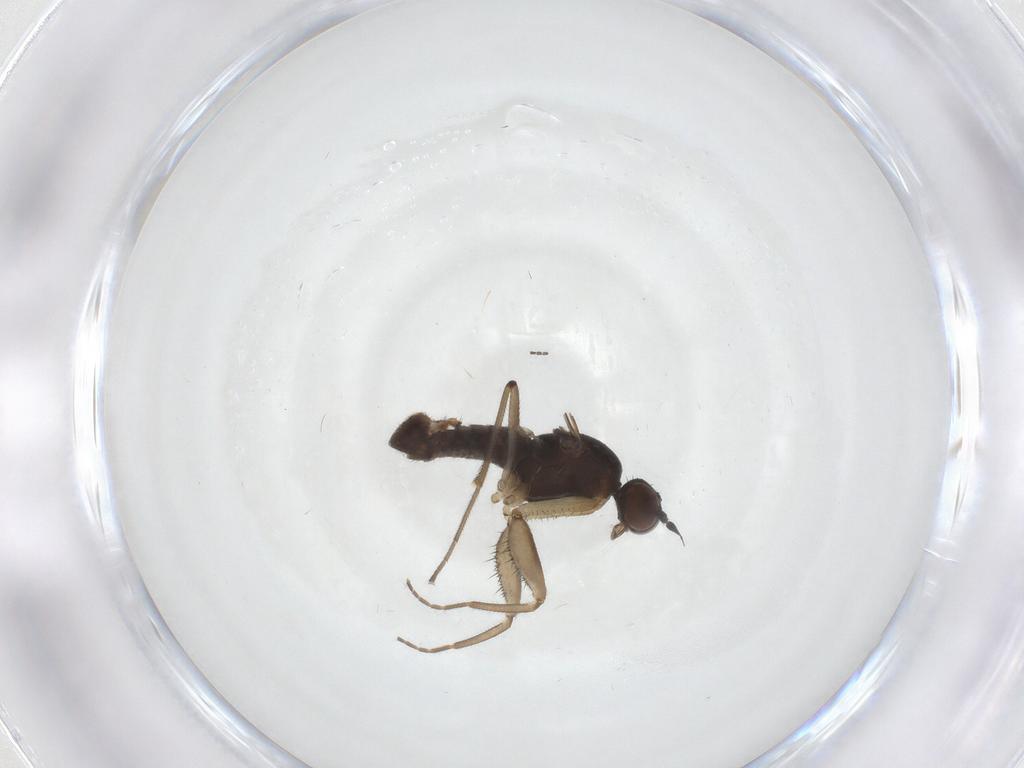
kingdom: Animalia
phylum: Arthropoda
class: Insecta
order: Diptera
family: Empididae
